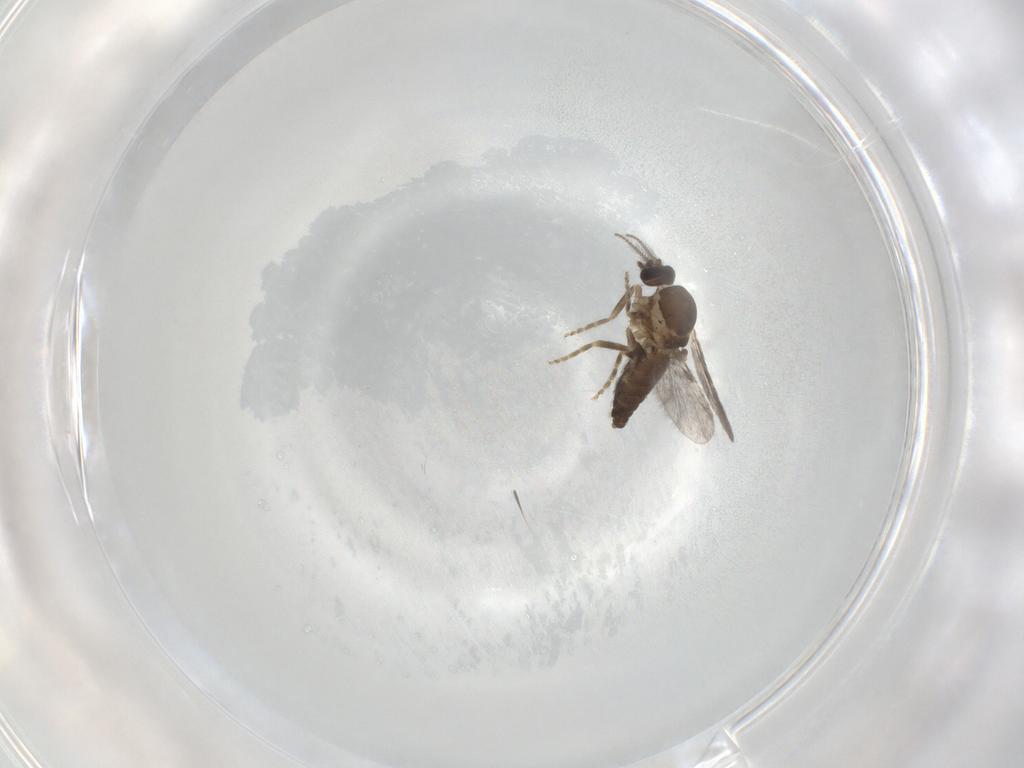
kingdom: Animalia
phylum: Arthropoda
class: Insecta
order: Diptera
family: Ceratopogonidae
